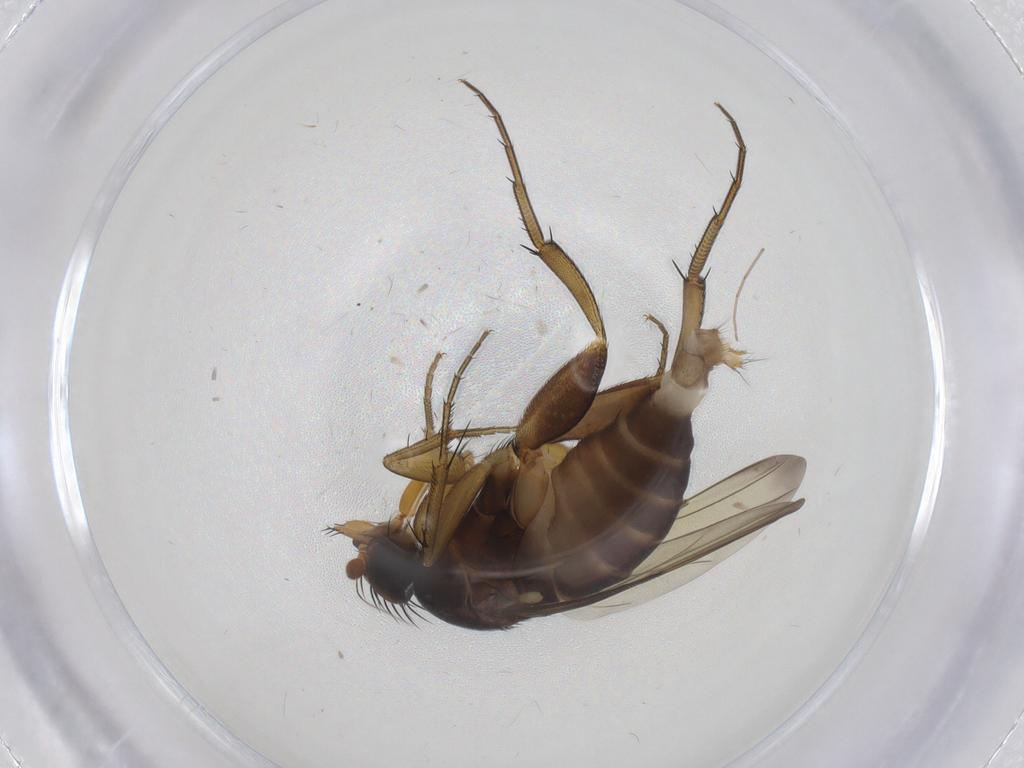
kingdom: Animalia
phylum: Arthropoda
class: Insecta
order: Diptera
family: Phoridae
